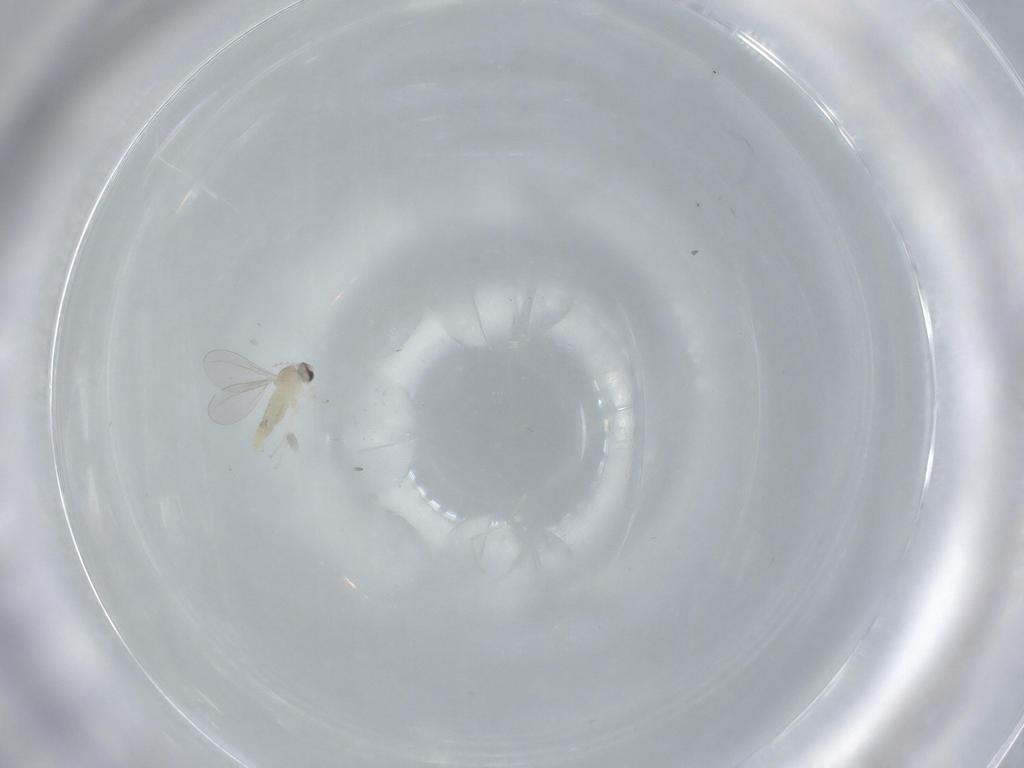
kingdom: Animalia
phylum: Arthropoda
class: Insecta
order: Diptera
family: Cecidomyiidae
